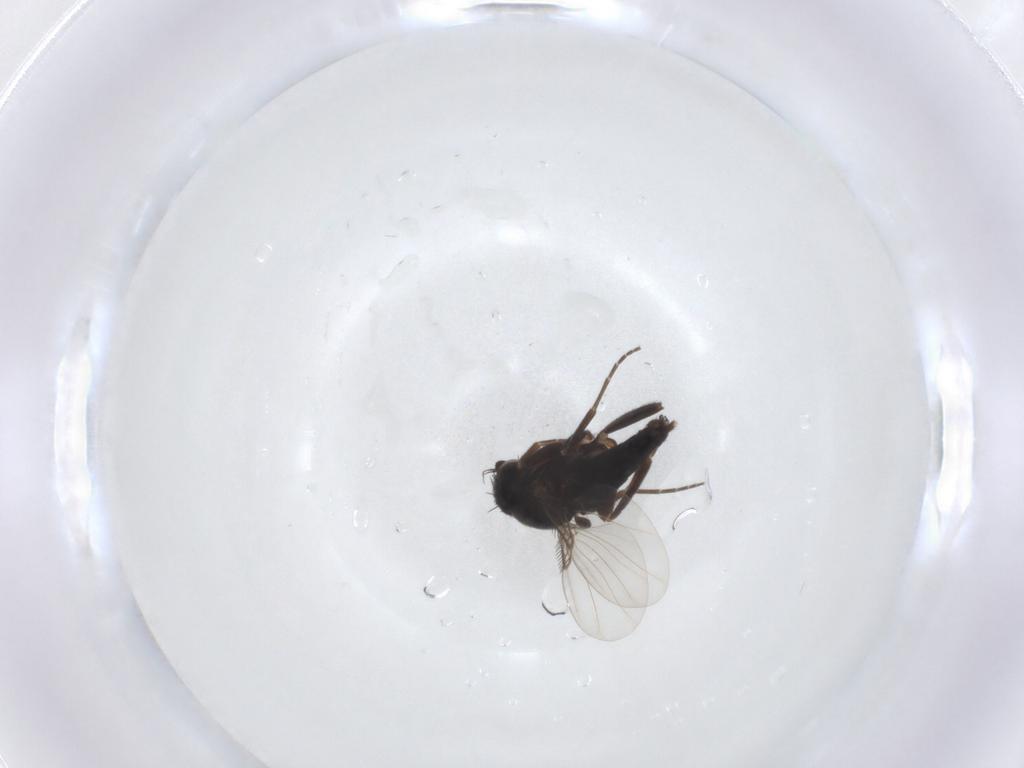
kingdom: Animalia
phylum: Arthropoda
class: Insecta
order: Diptera
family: Phoridae
